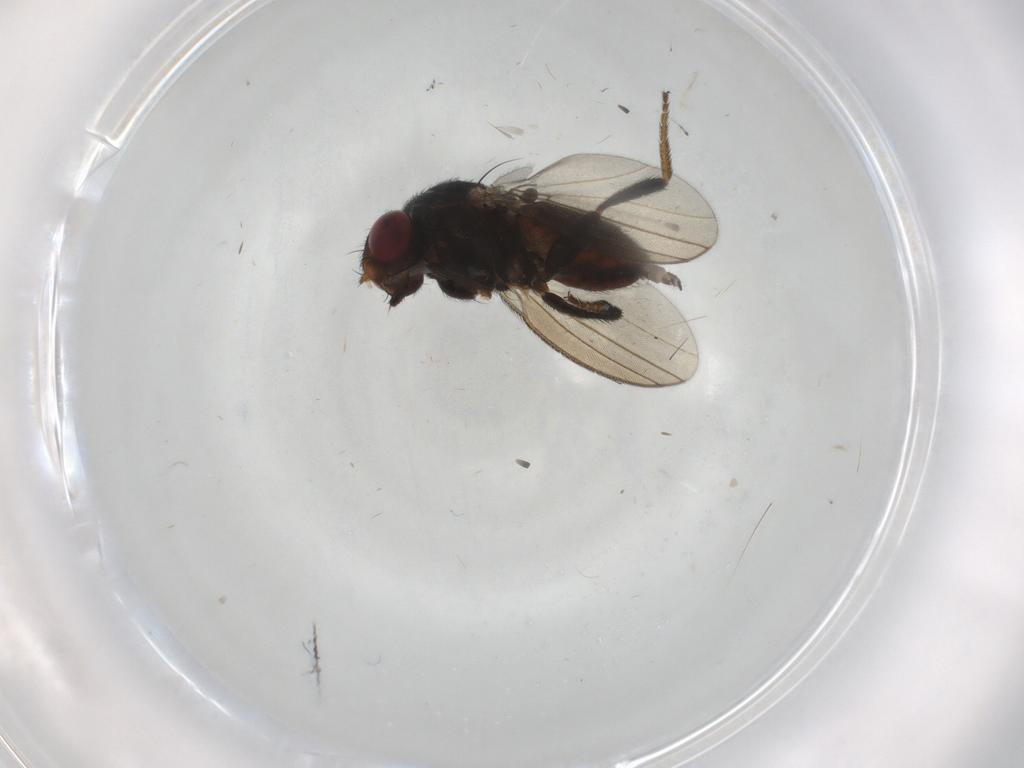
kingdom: Animalia
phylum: Arthropoda
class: Insecta
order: Diptera
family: Milichiidae
